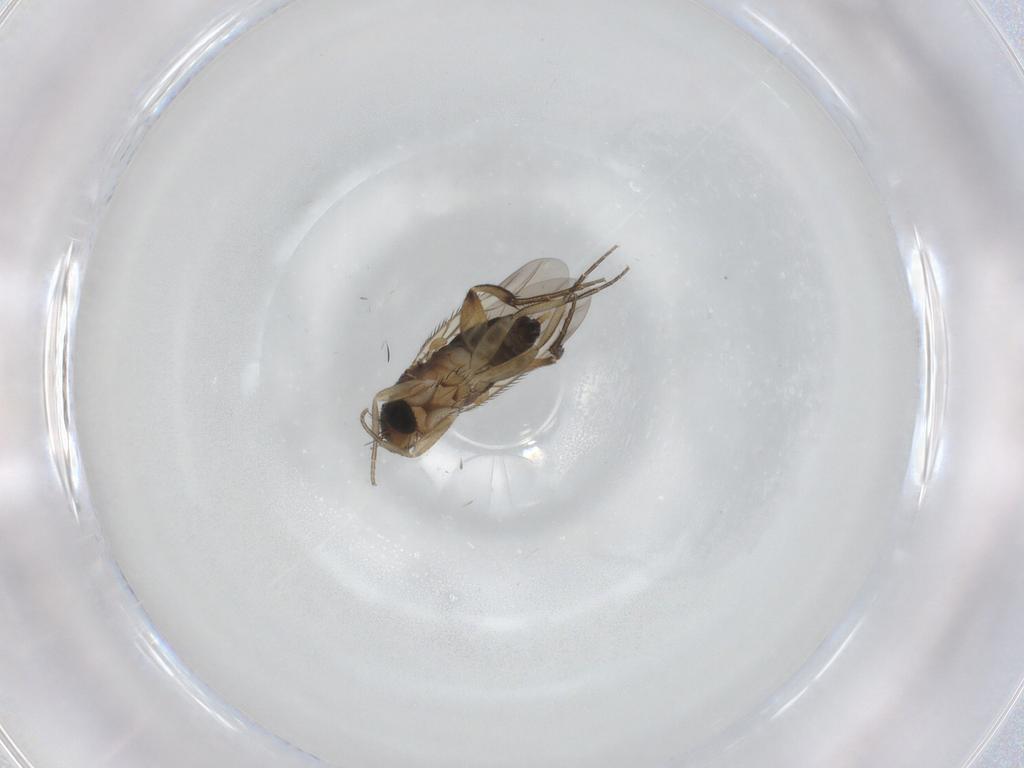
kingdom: Animalia
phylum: Arthropoda
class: Insecta
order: Diptera
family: Phoridae
